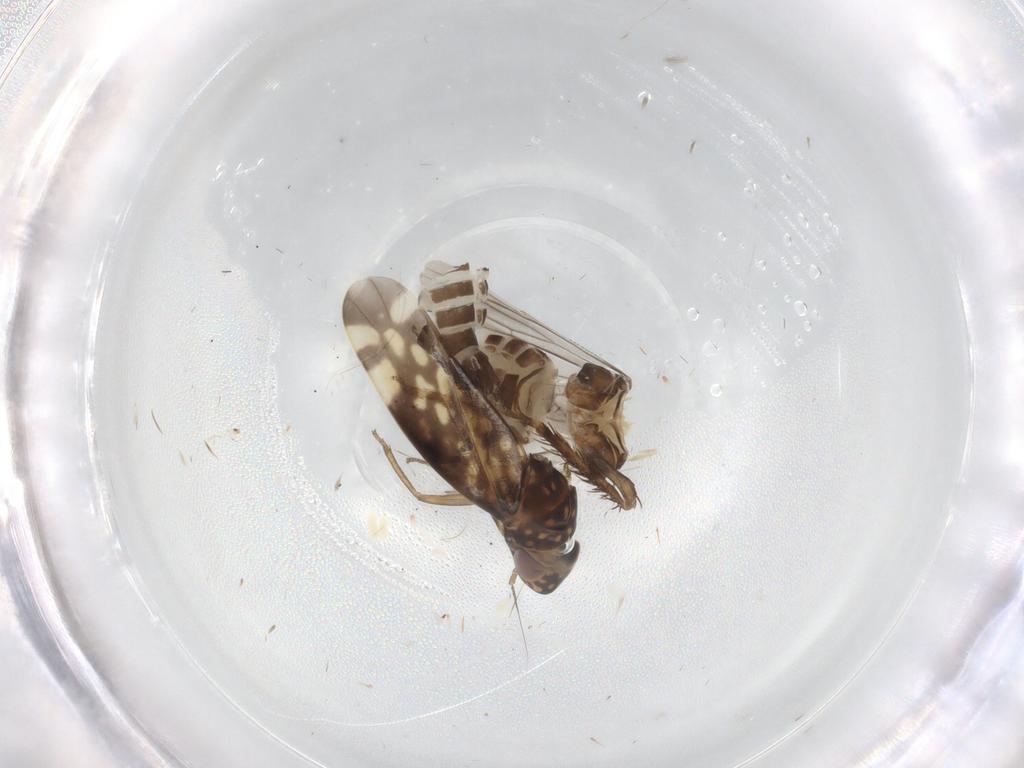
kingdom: Animalia
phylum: Arthropoda
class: Insecta
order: Hemiptera
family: Cicadellidae
